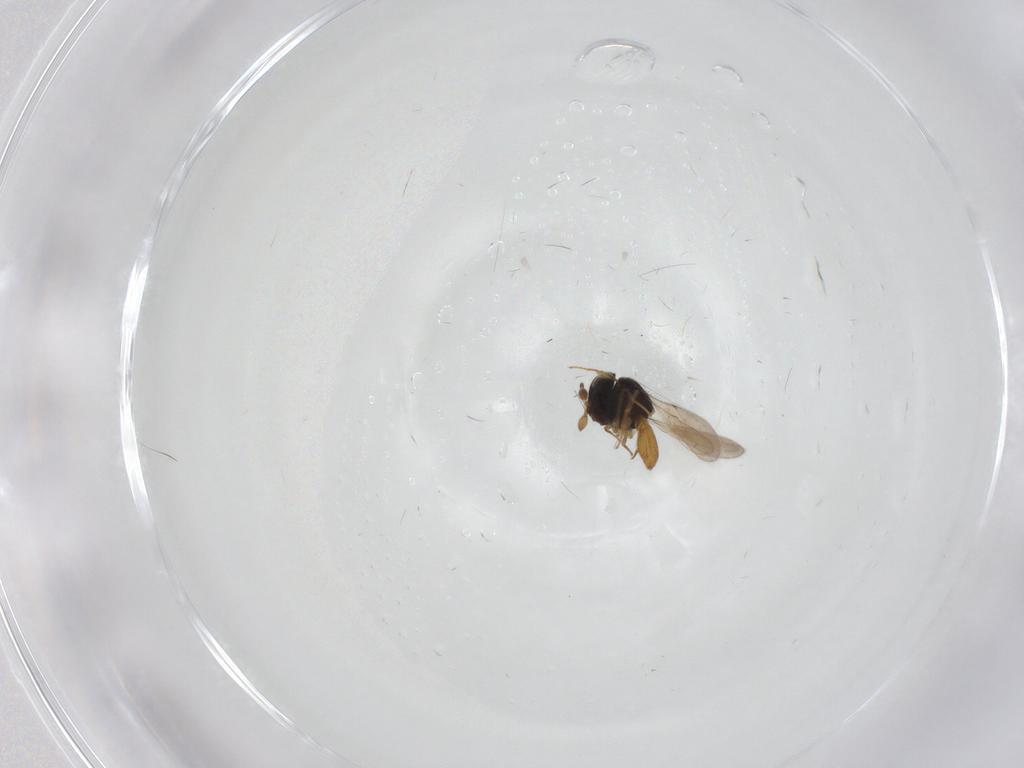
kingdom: Animalia
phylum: Arthropoda
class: Insecta
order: Hymenoptera
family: Scelionidae
